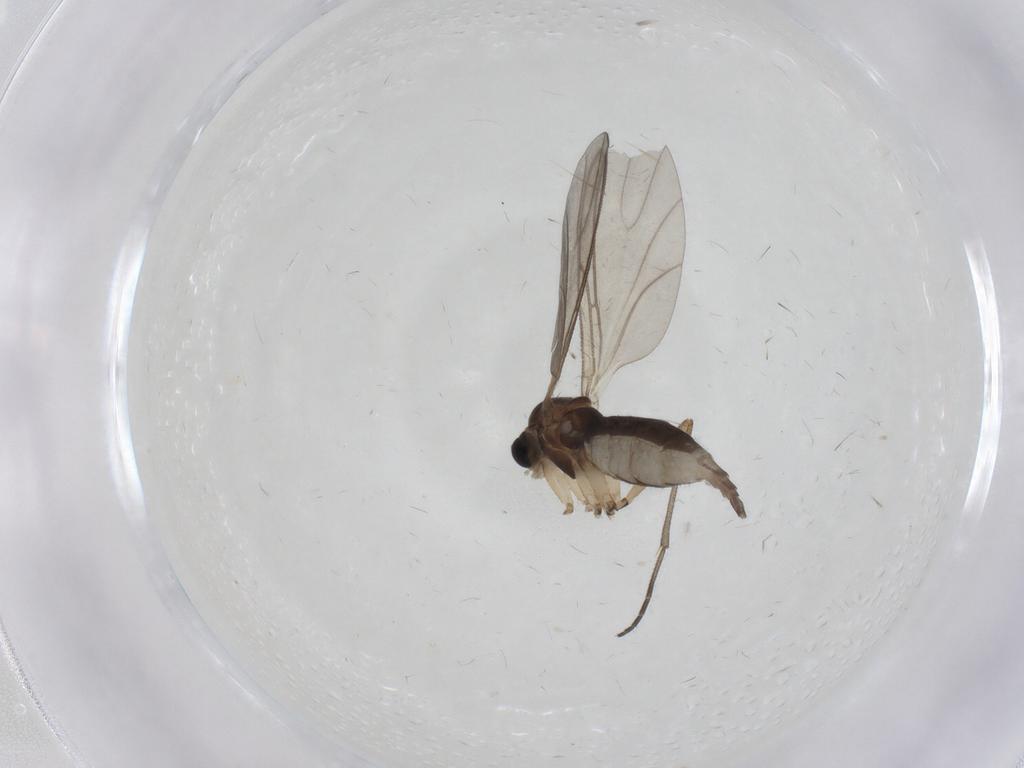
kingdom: Animalia
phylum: Arthropoda
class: Insecta
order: Diptera
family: Sciaridae
